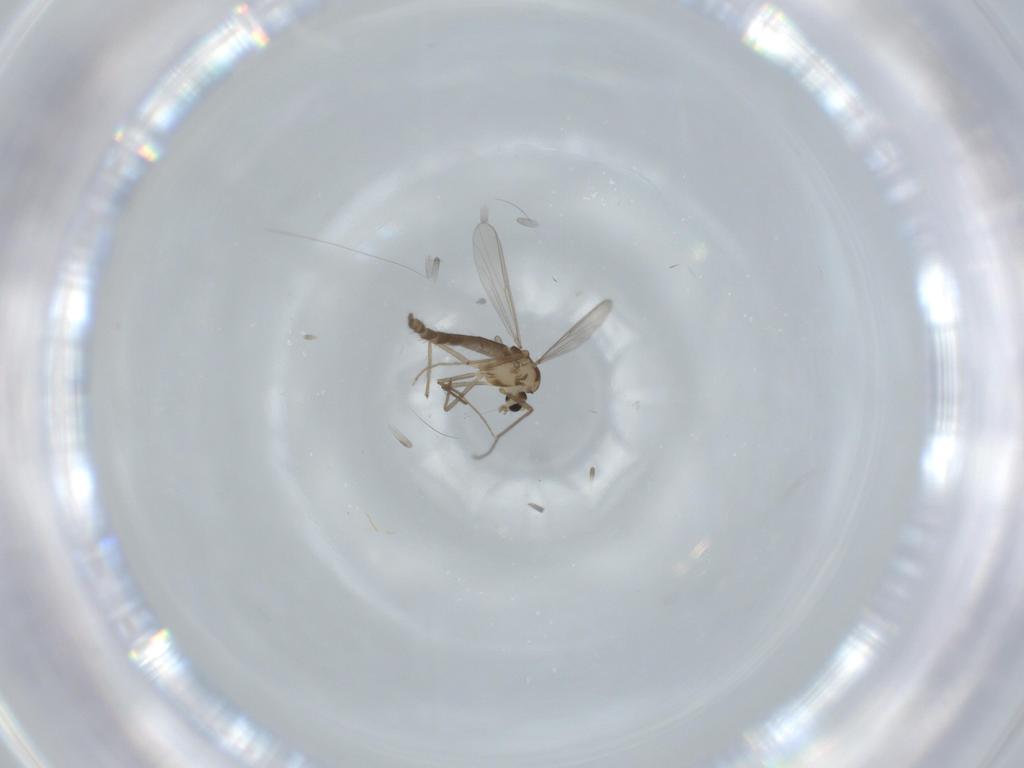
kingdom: Animalia
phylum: Arthropoda
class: Insecta
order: Diptera
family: Chironomidae
